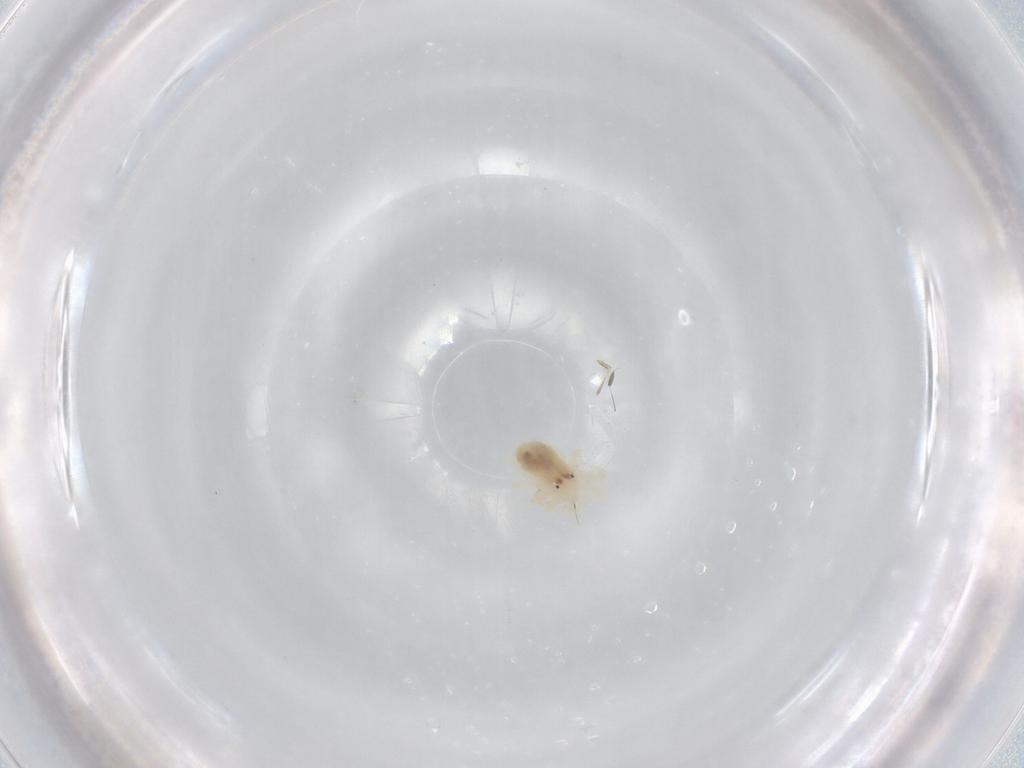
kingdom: Animalia
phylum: Arthropoda
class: Arachnida
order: Trombidiformes
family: Anystidae
